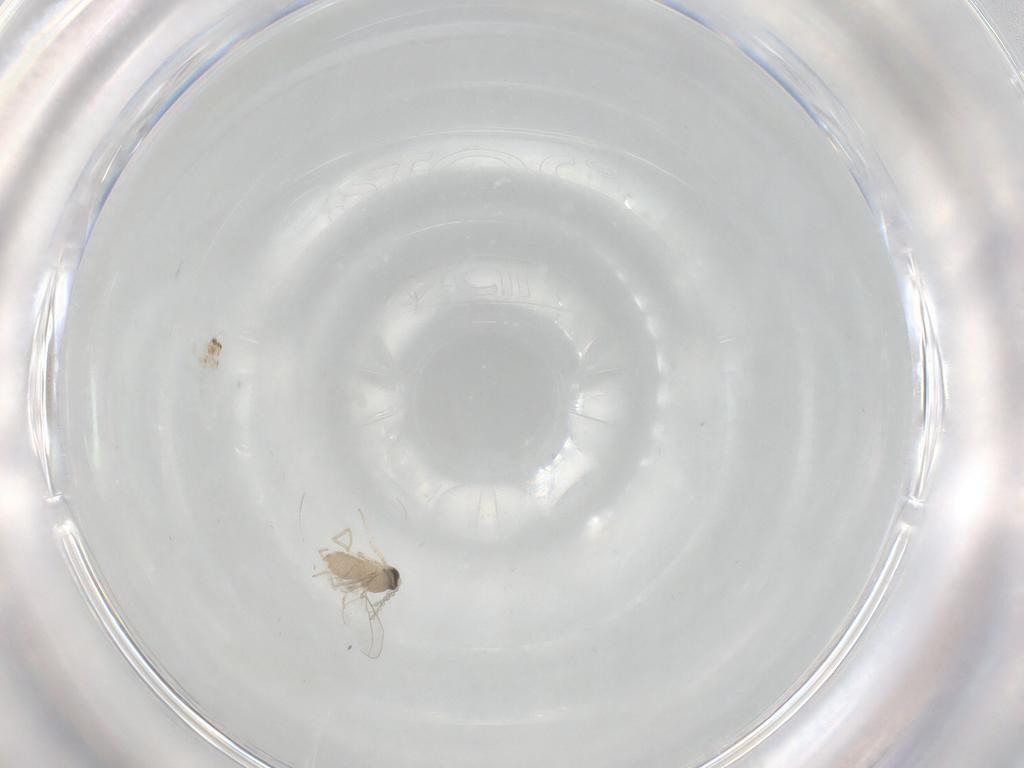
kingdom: Animalia
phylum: Arthropoda
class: Insecta
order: Diptera
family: Cecidomyiidae
